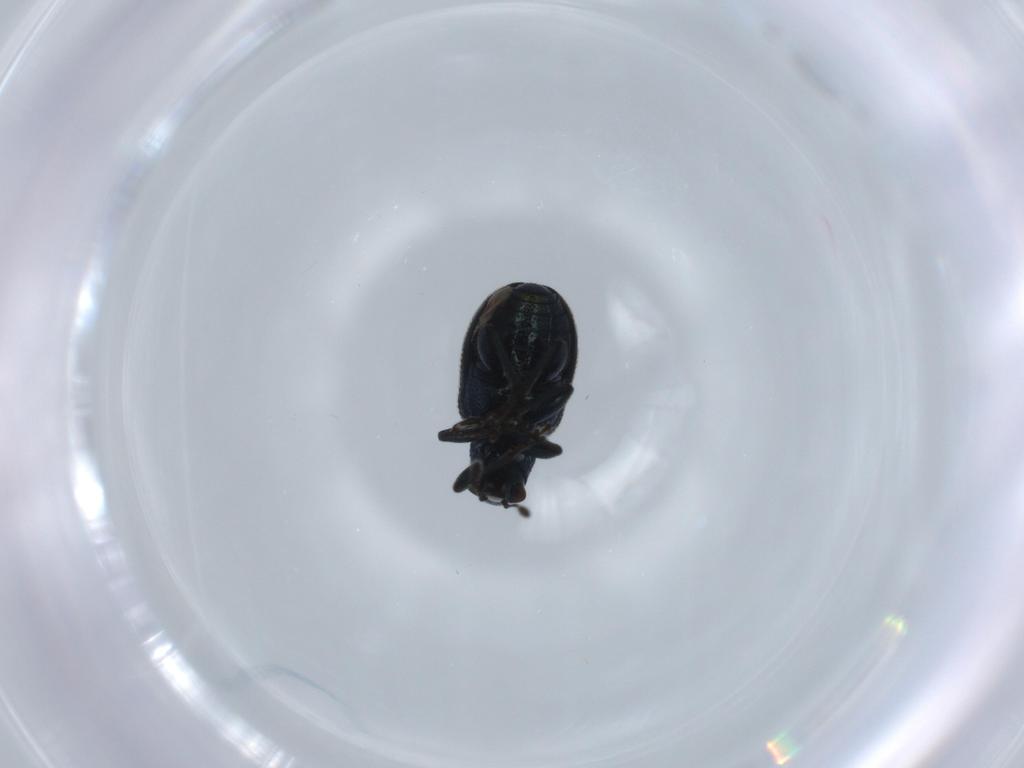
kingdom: Animalia
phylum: Arthropoda
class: Insecta
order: Coleoptera
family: Attelabidae
